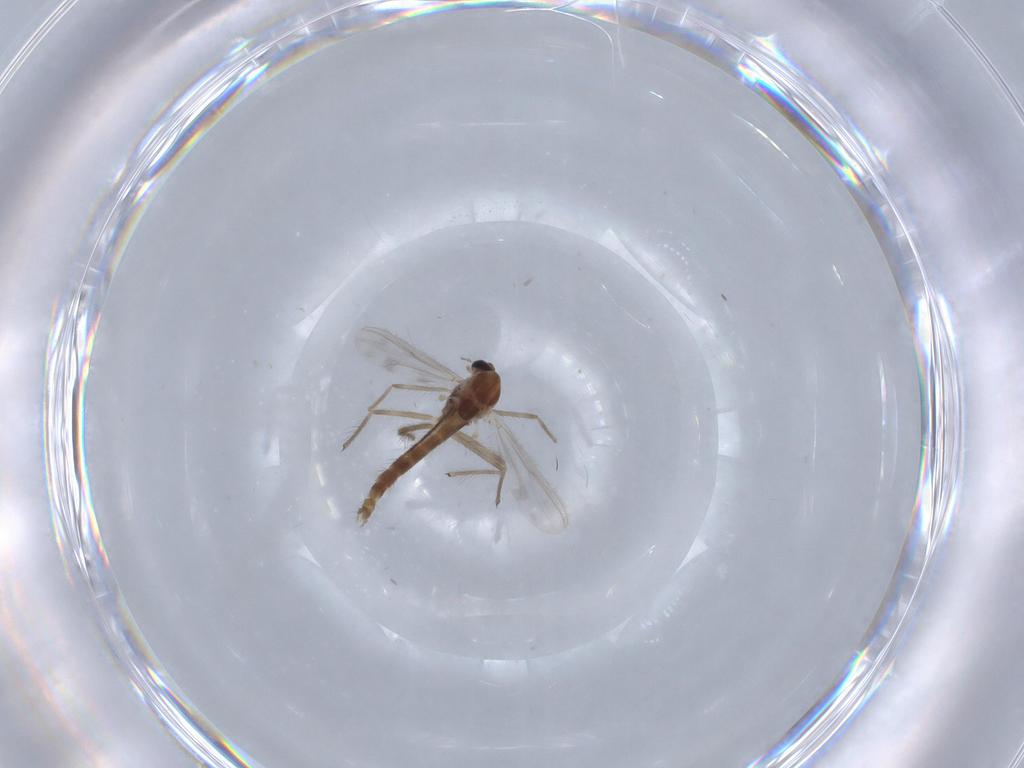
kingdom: Animalia
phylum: Arthropoda
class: Insecta
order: Diptera
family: Chironomidae
